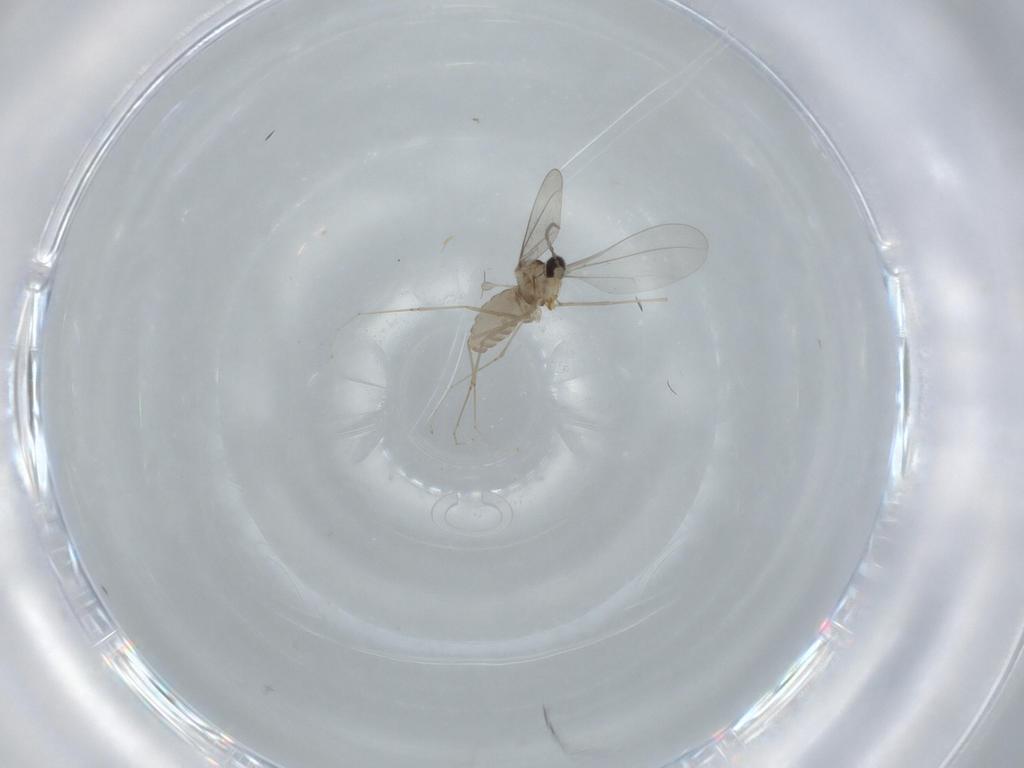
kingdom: Animalia
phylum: Arthropoda
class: Insecta
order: Diptera
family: Cecidomyiidae
